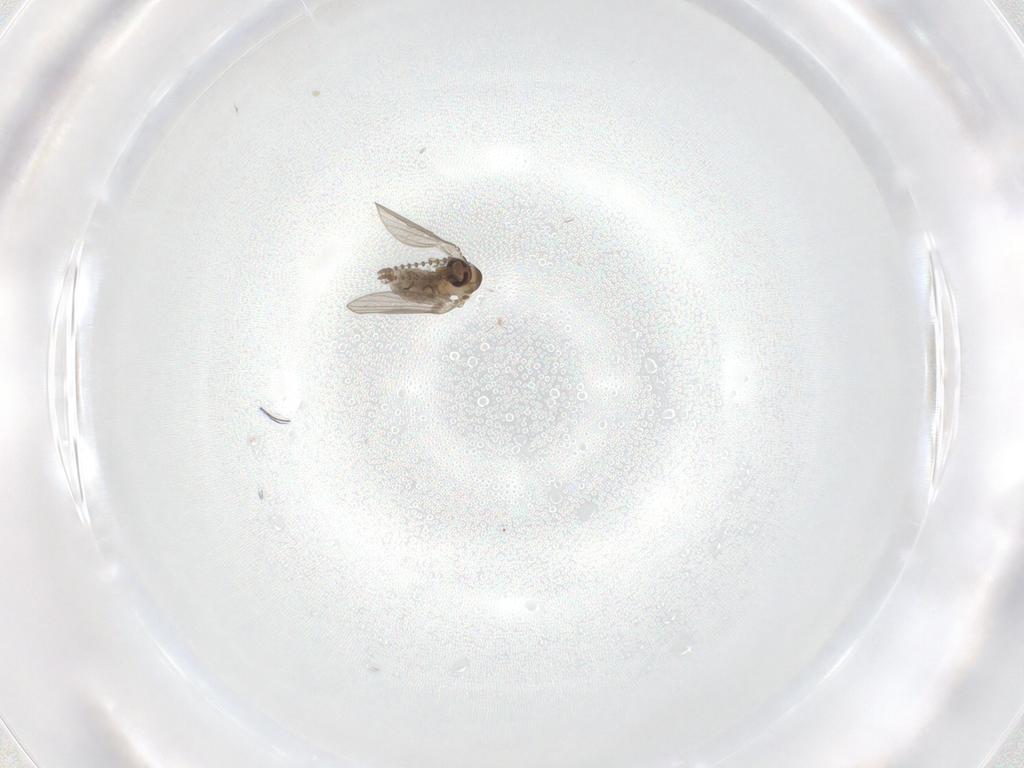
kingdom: Animalia
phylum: Arthropoda
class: Insecta
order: Diptera
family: Psychodidae
